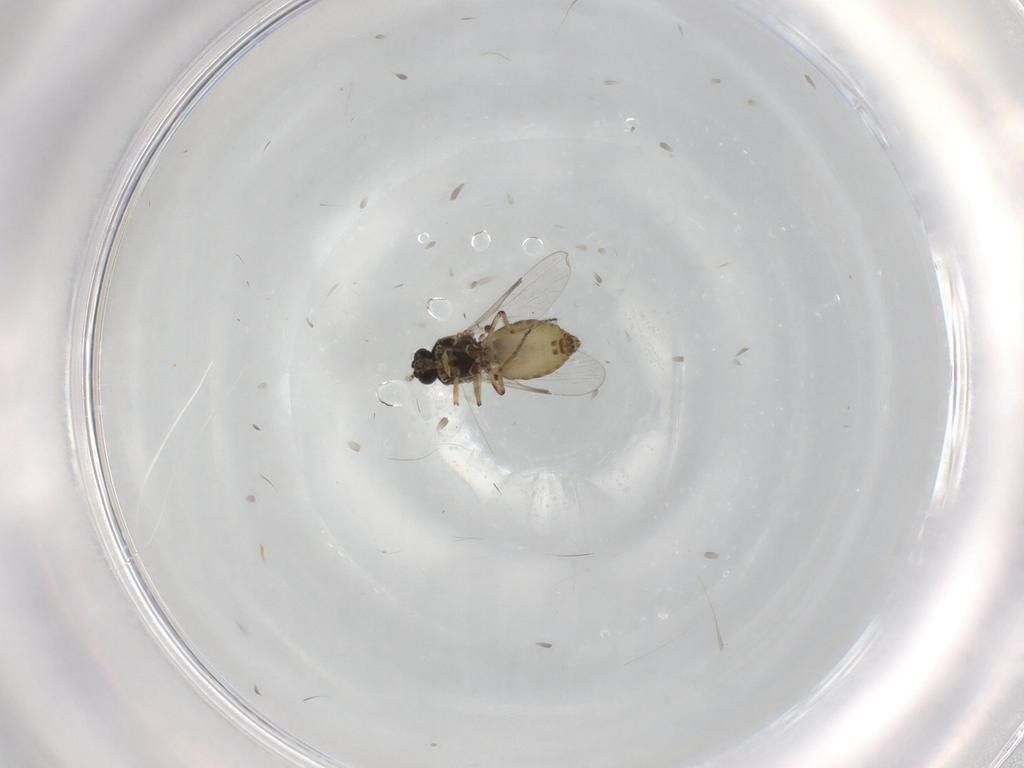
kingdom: Animalia
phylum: Arthropoda
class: Insecta
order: Diptera
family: Ceratopogonidae
